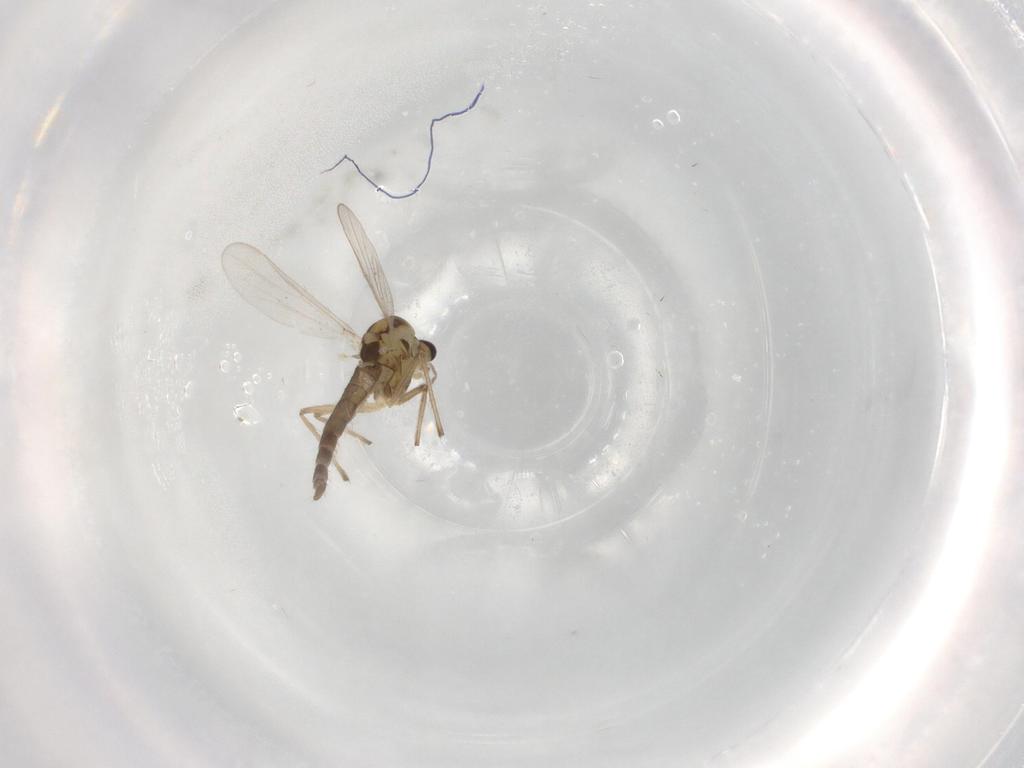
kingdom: Animalia
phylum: Arthropoda
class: Insecta
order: Diptera
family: Chironomidae
